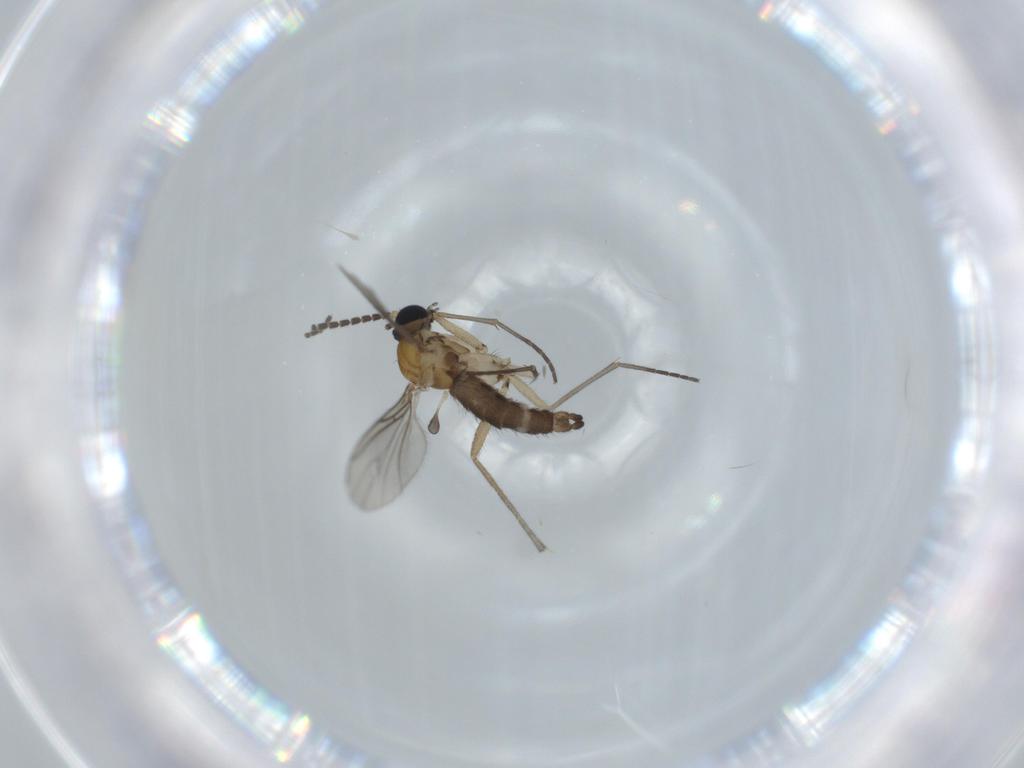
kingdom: Animalia
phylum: Arthropoda
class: Insecta
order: Diptera
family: Sciaridae
